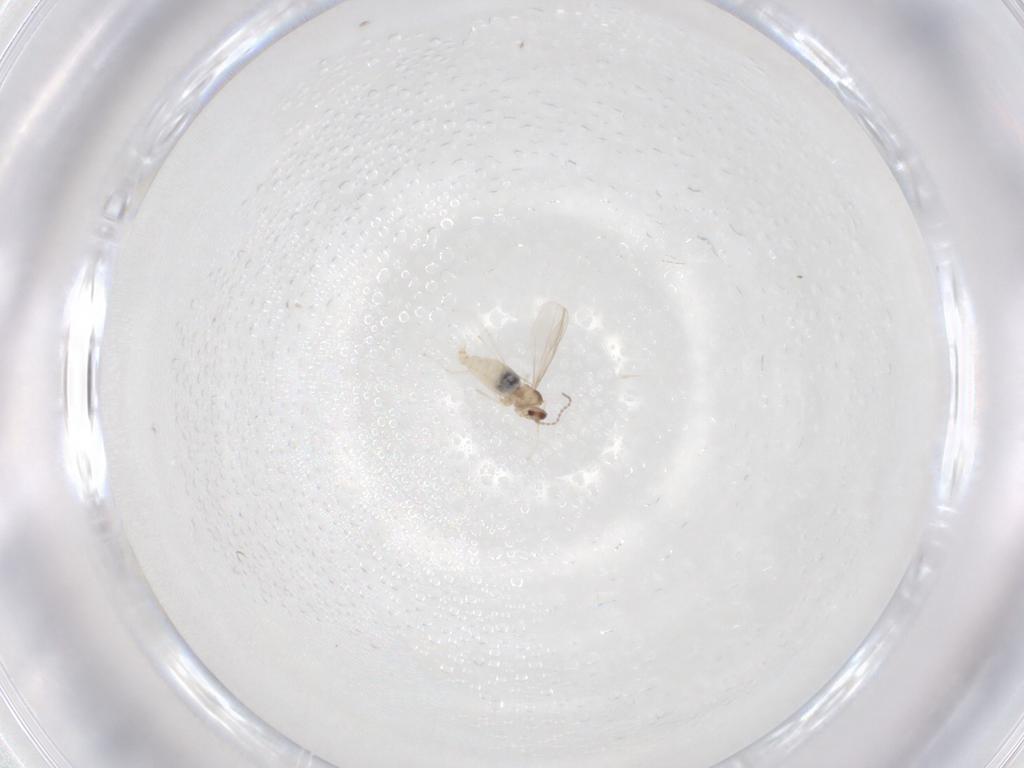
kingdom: Animalia
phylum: Arthropoda
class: Insecta
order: Diptera
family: Cecidomyiidae
